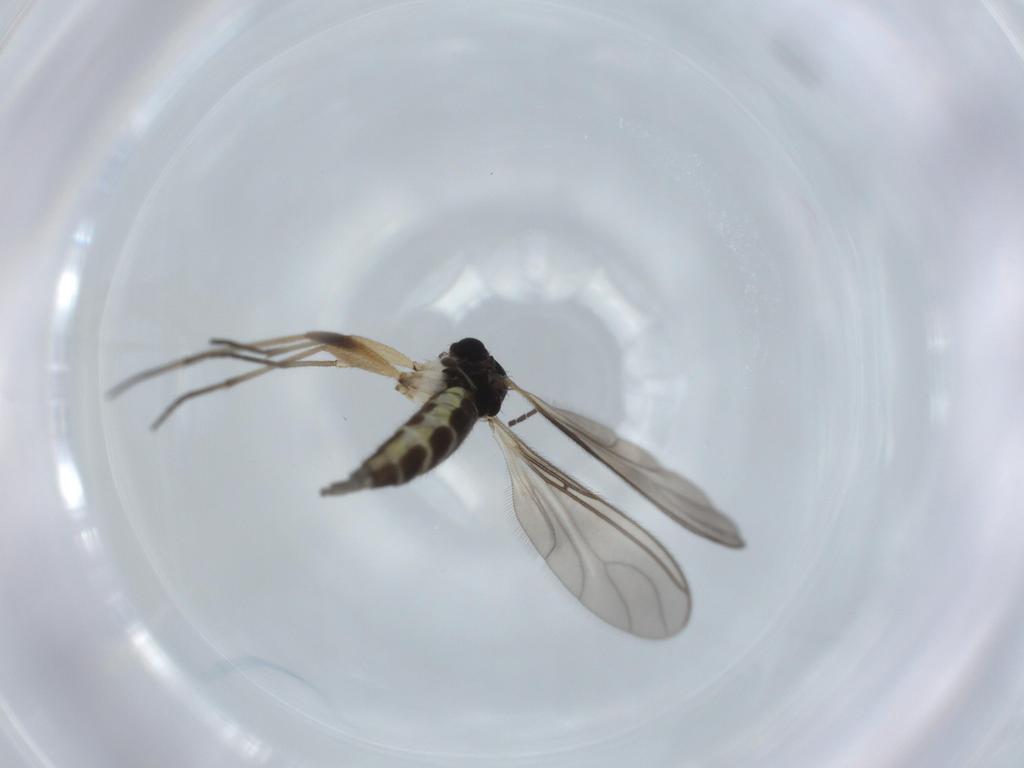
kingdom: Animalia
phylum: Arthropoda
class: Insecta
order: Diptera
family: Sciaridae
